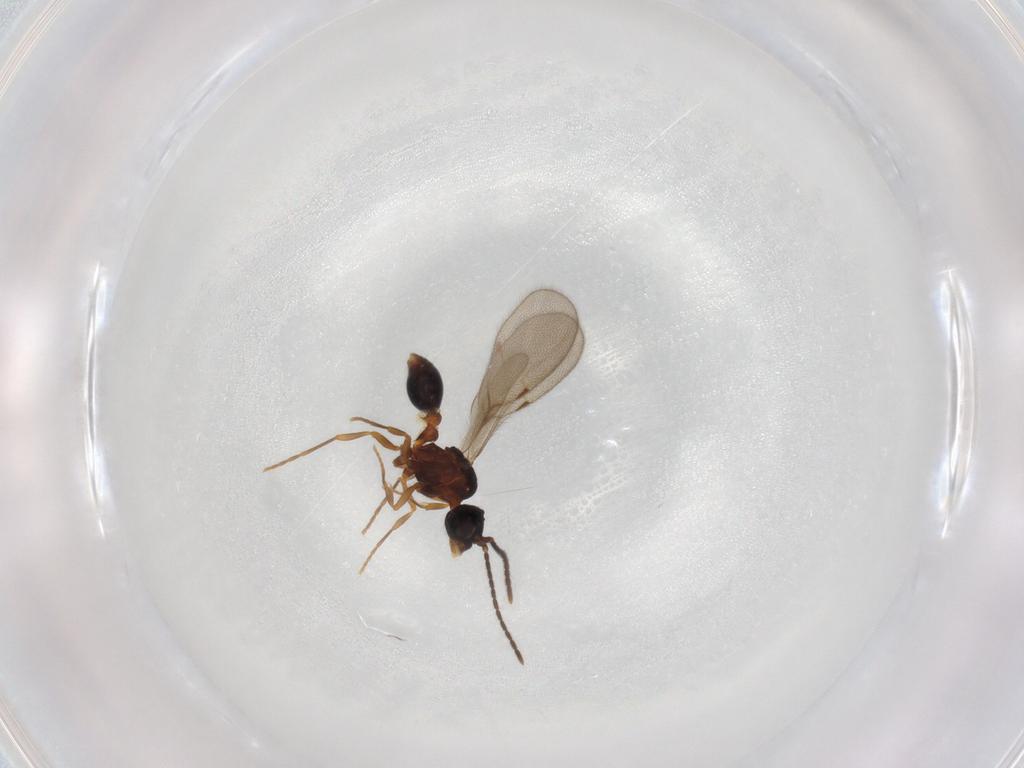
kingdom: Animalia
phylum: Arthropoda
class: Insecta
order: Hymenoptera
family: Formicidae
